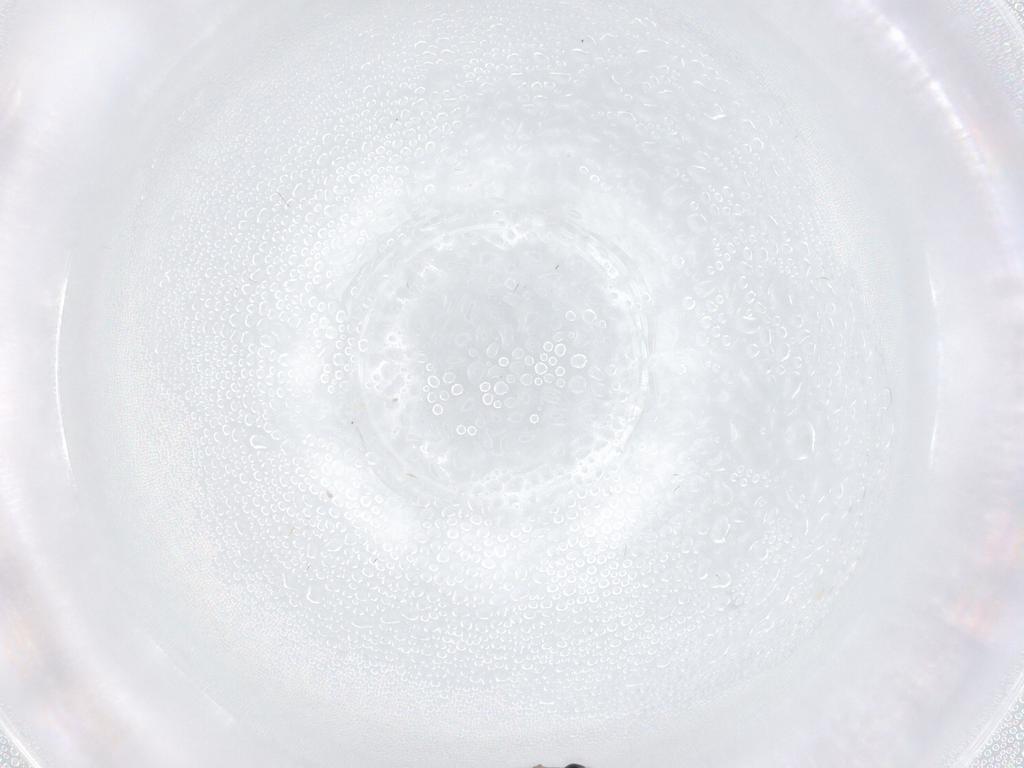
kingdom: Animalia
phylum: Arthropoda
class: Insecta
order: Diptera
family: Cecidomyiidae
